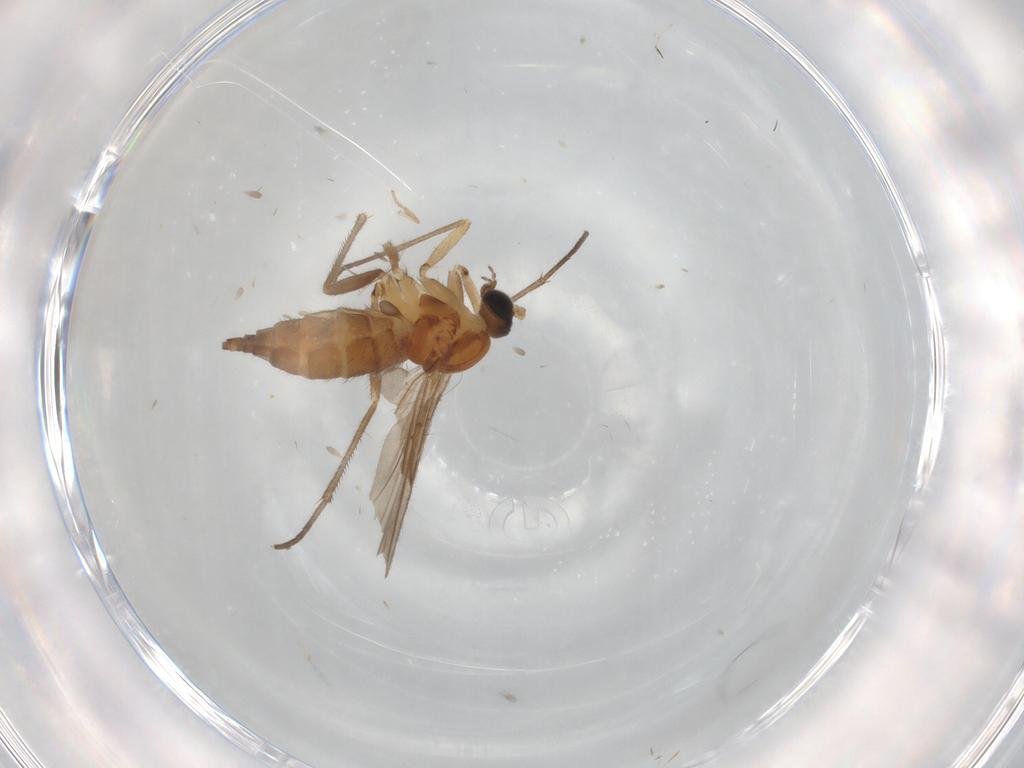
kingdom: Animalia
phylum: Arthropoda
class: Insecta
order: Diptera
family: Sciaridae
